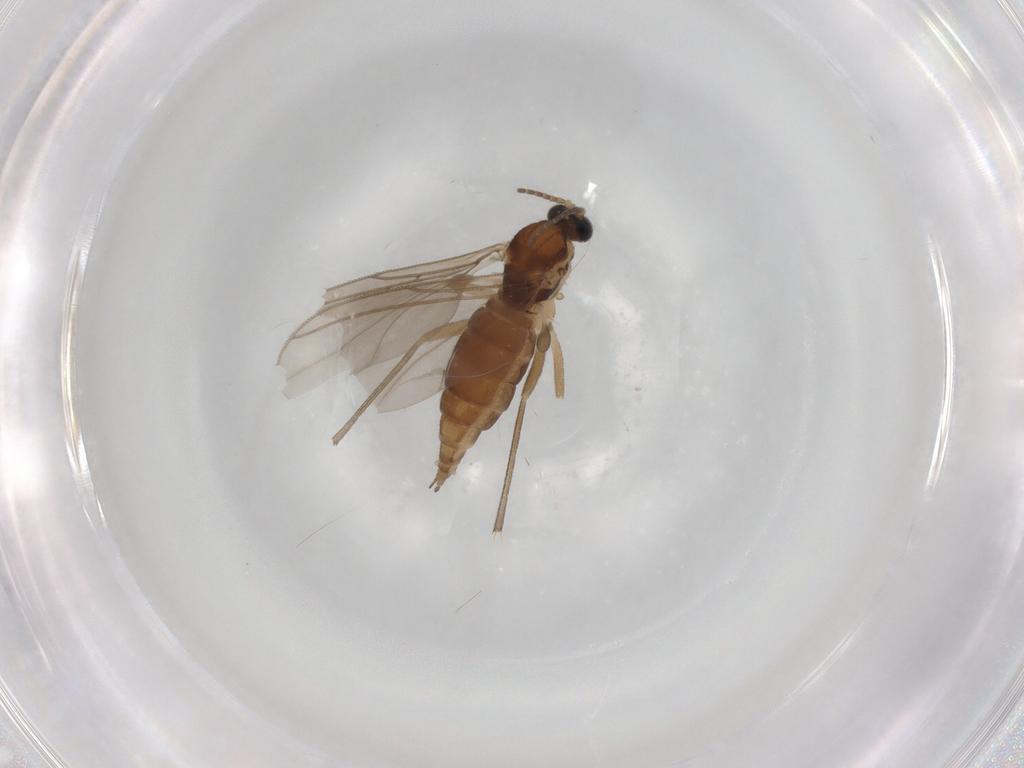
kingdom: Animalia
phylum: Arthropoda
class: Insecta
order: Diptera
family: Sciaridae
